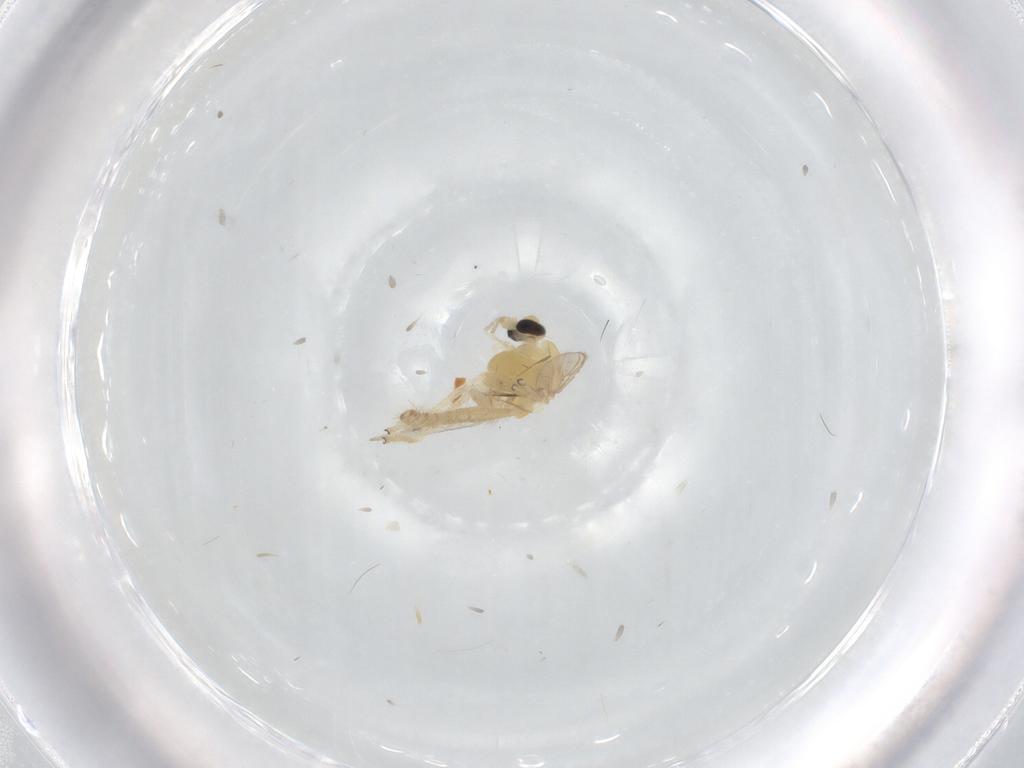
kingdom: Animalia
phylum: Arthropoda
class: Insecta
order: Diptera
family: Chironomidae
